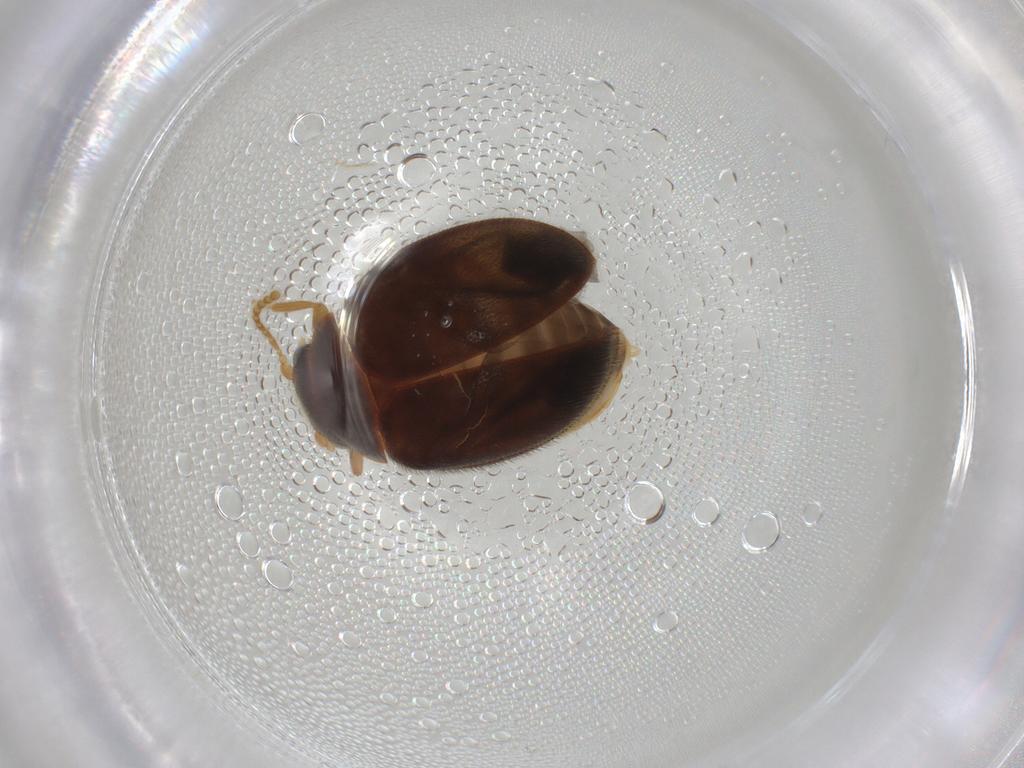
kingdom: Animalia
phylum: Arthropoda
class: Insecta
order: Coleoptera
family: Scirtidae
